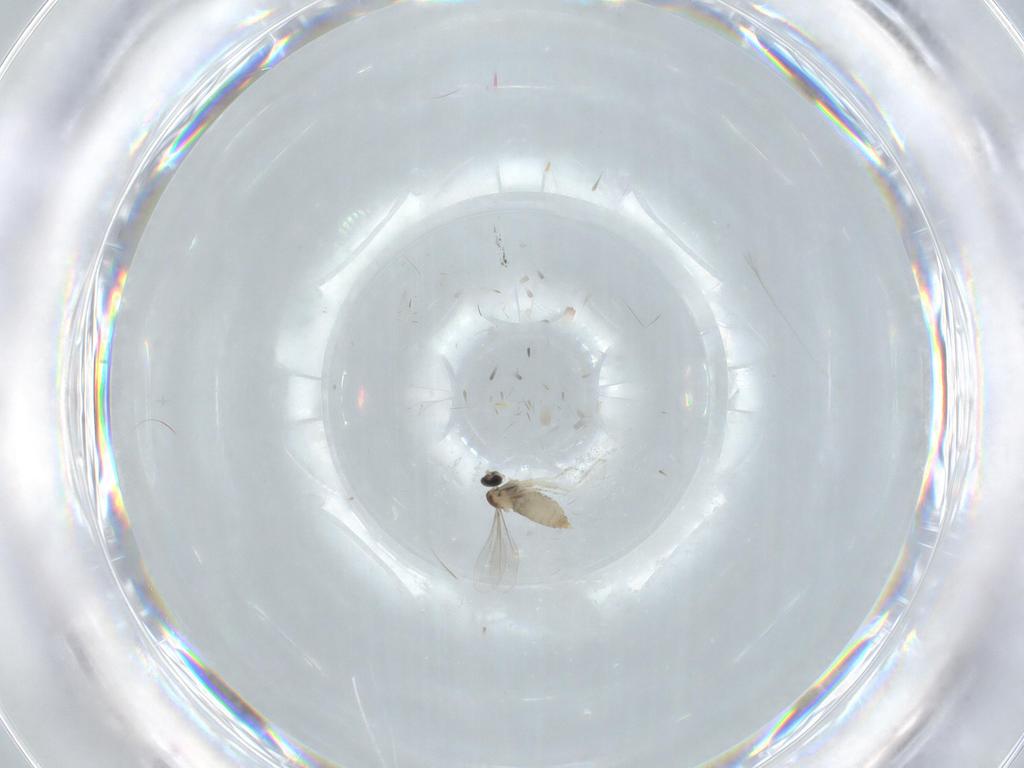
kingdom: Animalia
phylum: Arthropoda
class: Insecta
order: Diptera
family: Cecidomyiidae
